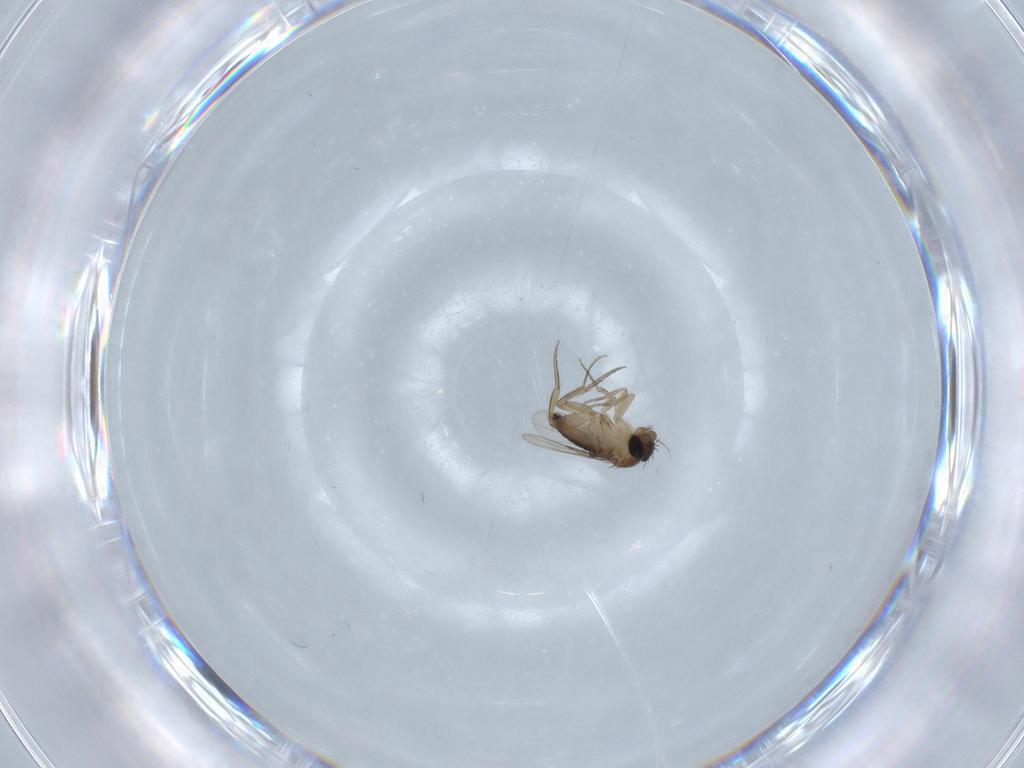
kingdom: Animalia
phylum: Arthropoda
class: Insecta
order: Diptera
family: Phoridae
